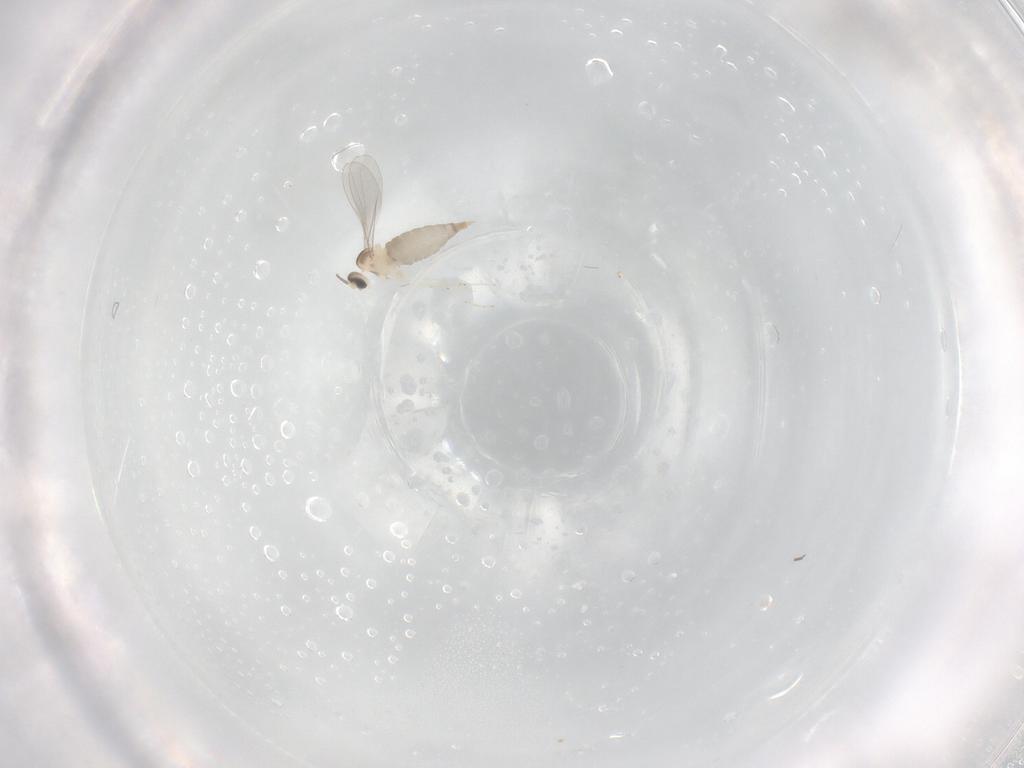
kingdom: Animalia
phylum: Arthropoda
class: Insecta
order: Diptera
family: Cecidomyiidae
